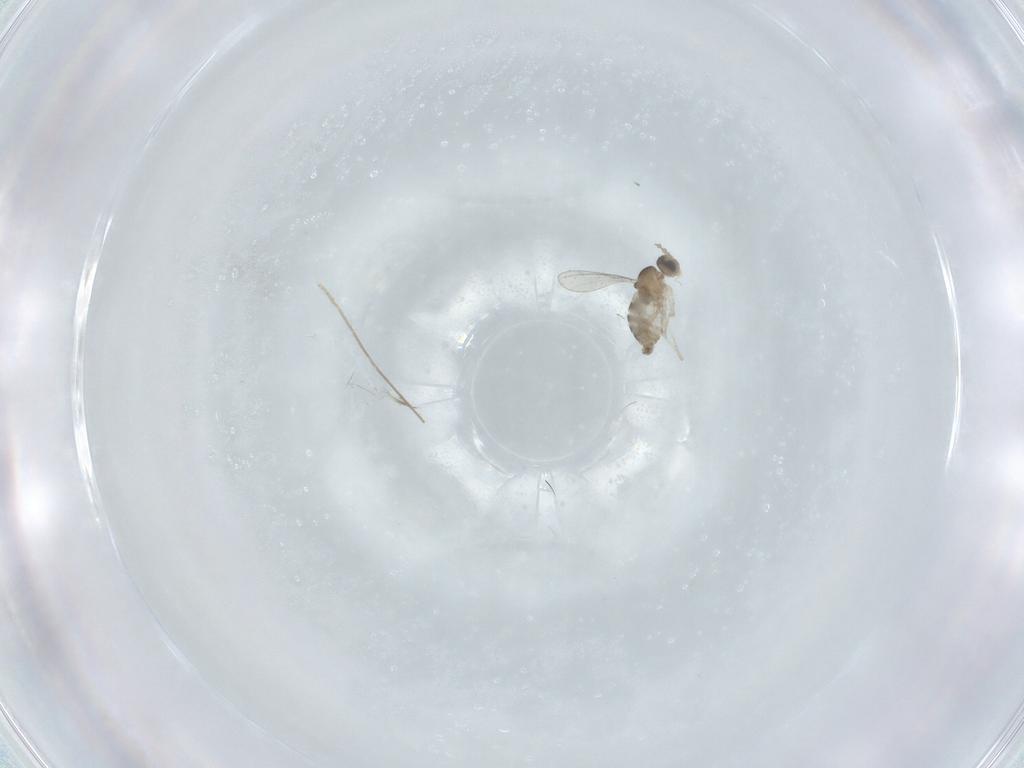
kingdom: Animalia
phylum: Arthropoda
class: Insecta
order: Diptera
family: Cecidomyiidae
